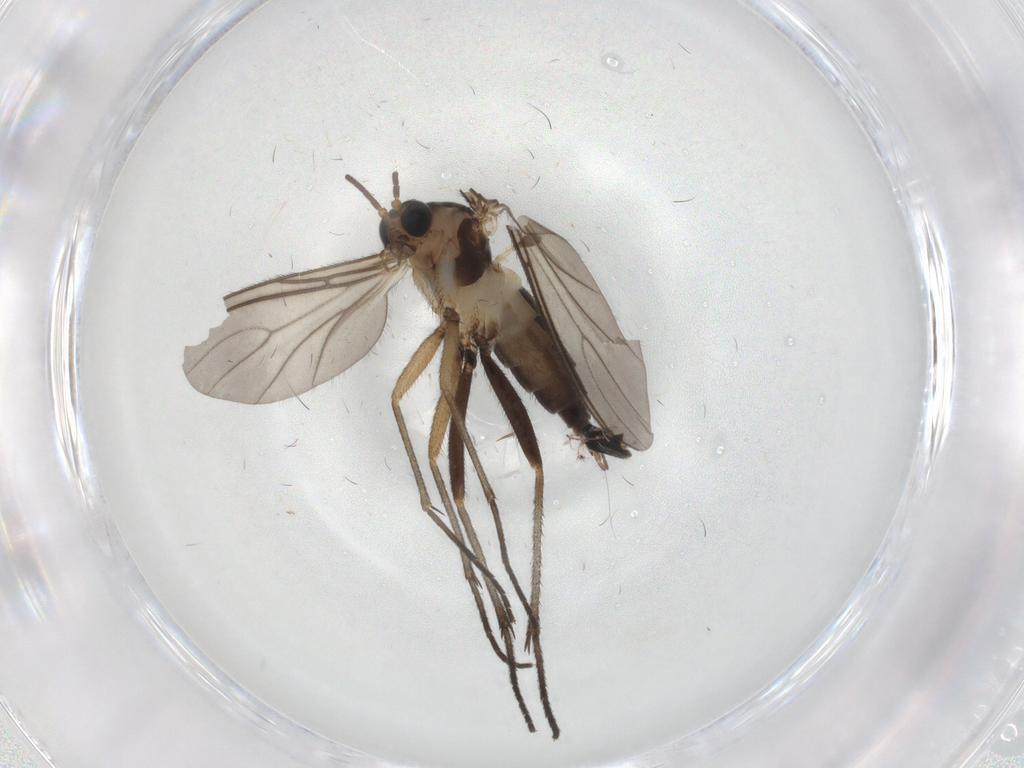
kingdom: Animalia
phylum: Arthropoda
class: Insecta
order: Diptera
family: Sciaridae
